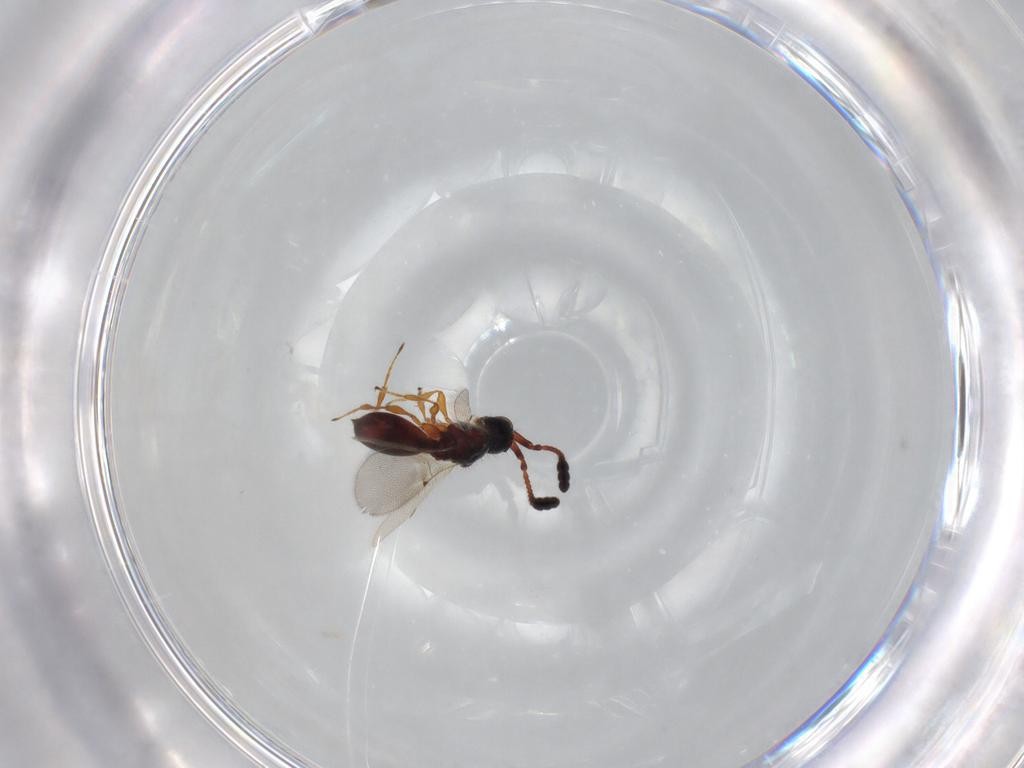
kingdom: Animalia
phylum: Arthropoda
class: Insecta
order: Hymenoptera
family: Diapriidae
